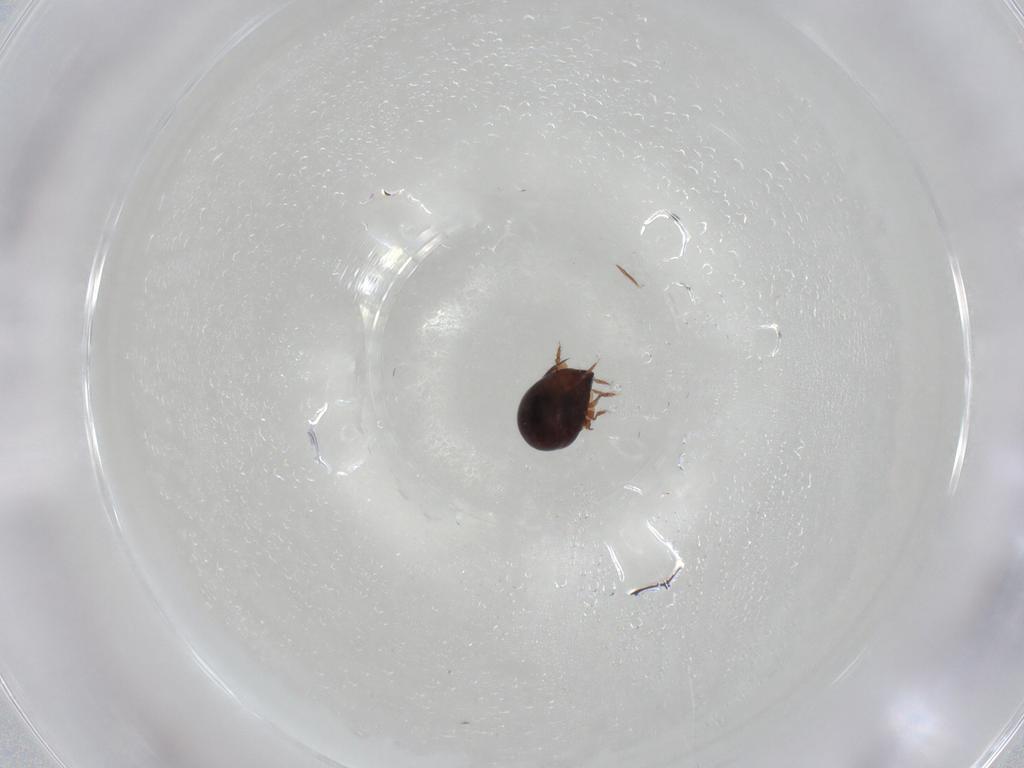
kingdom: Animalia
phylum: Arthropoda
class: Arachnida
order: Sarcoptiformes
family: Galumnidae
